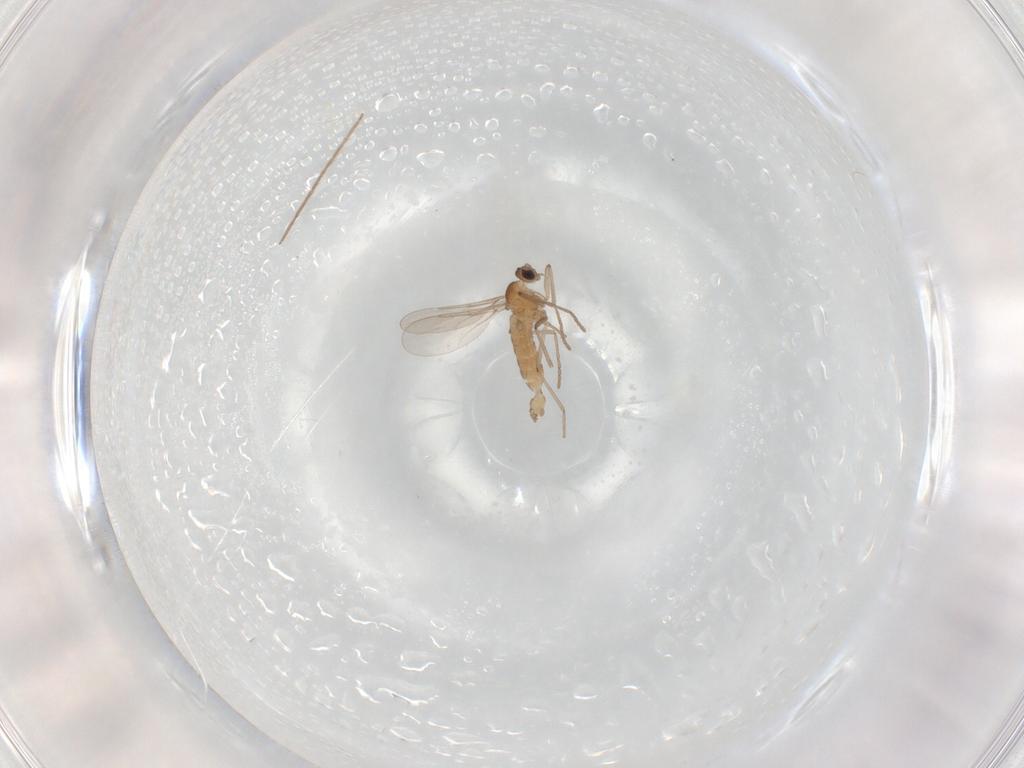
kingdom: Animalia
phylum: Arthropoda
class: Insecta
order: Diptera
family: Cecidomyiidae
